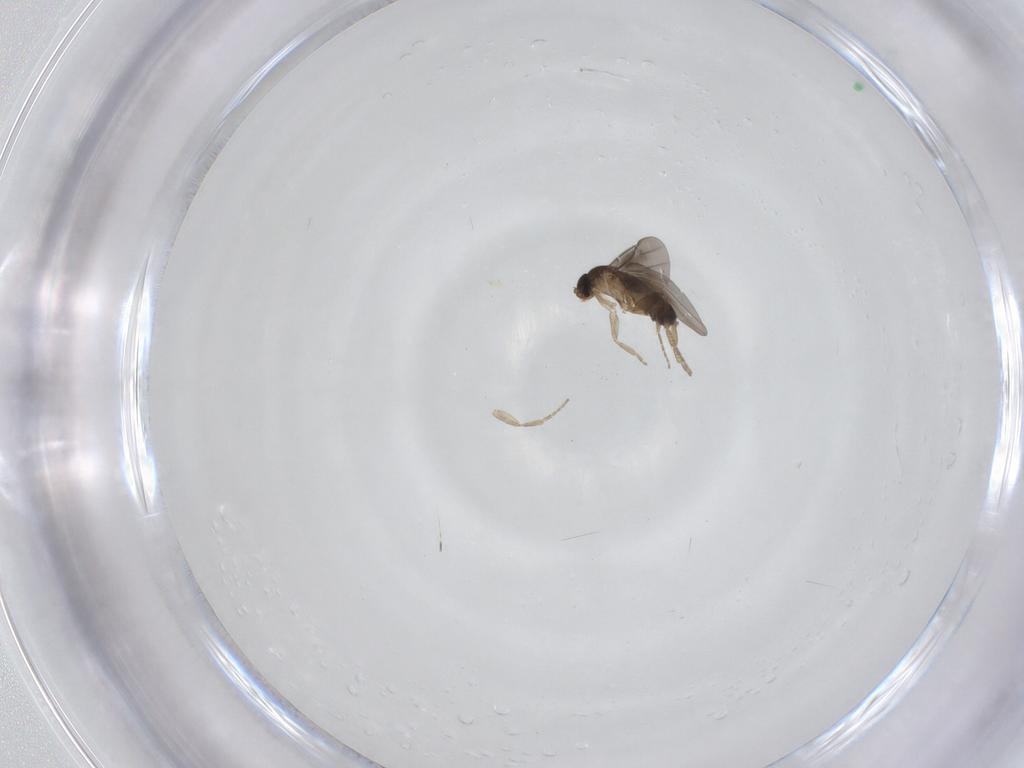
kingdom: Animalia
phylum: Arthropoda
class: Insecta
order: Diptera
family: Phoridae
